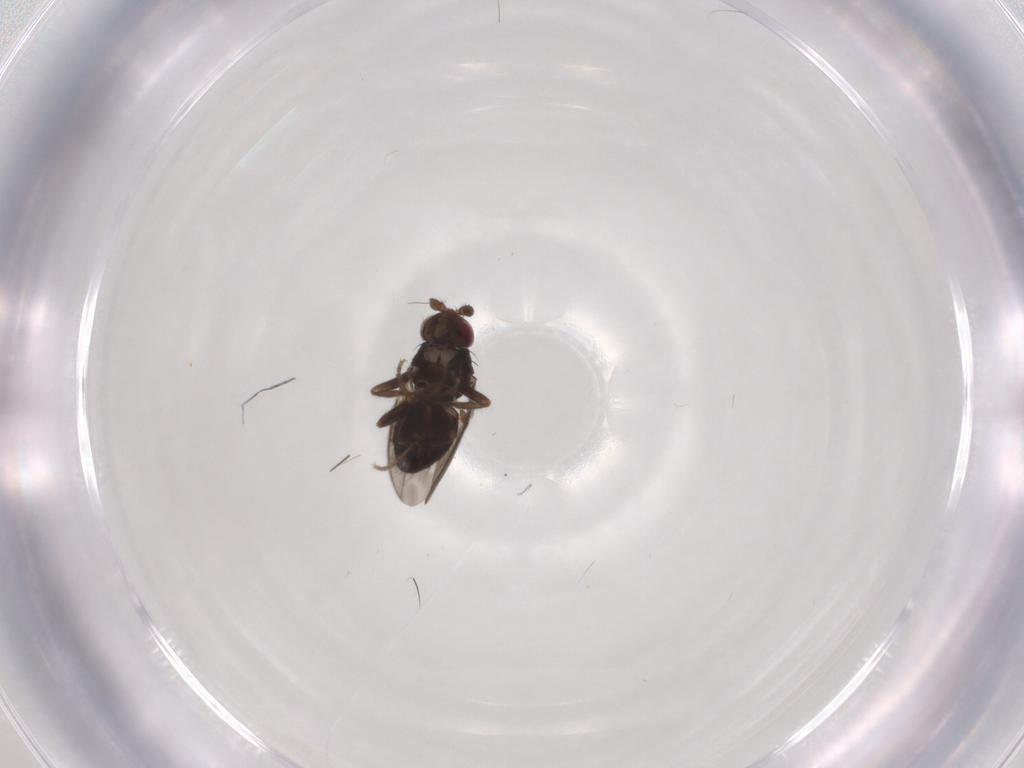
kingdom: Animalia
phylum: Arthropoda
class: Insecta
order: Diptera
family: Sphaeroceridae
